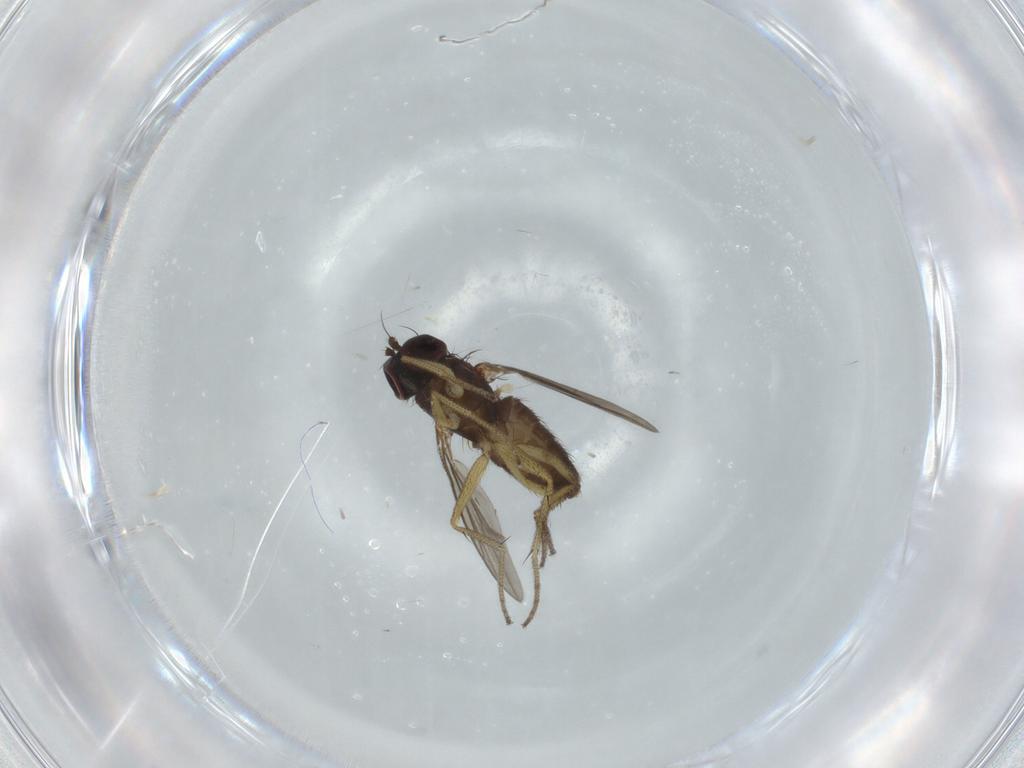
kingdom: Animalia
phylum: Arthropoda
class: Insecta
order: Diptera
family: Dolichopodidae
